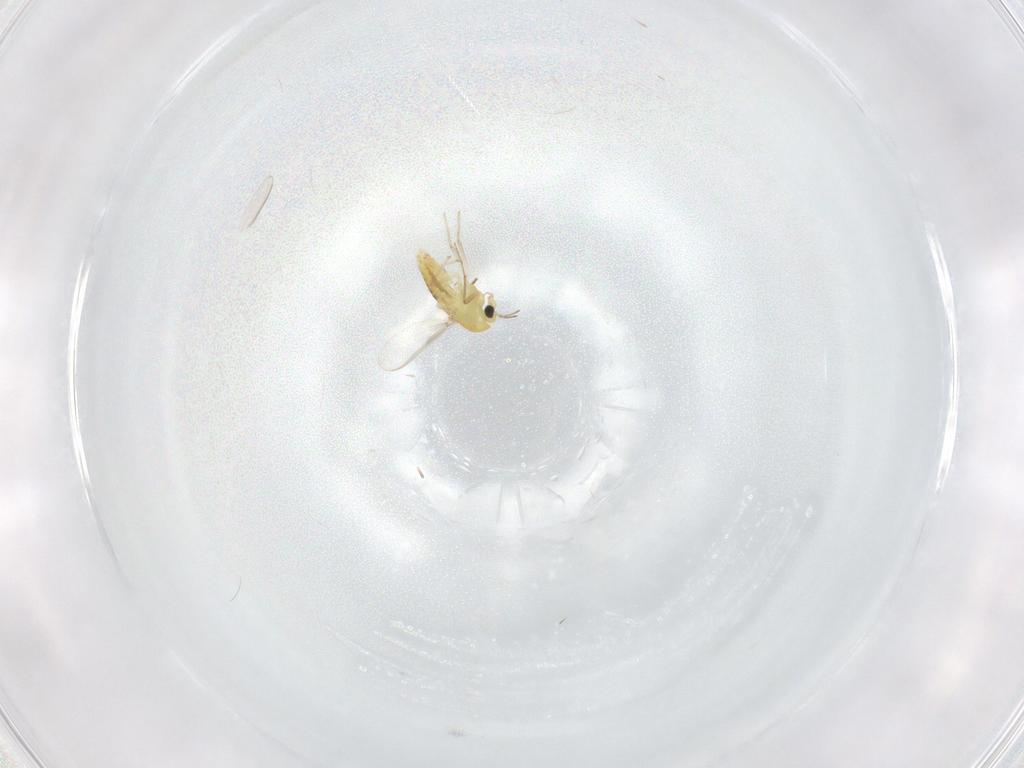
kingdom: Animalia
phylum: Arthropoda
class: Insecta
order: Diptera
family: Chironomidae
